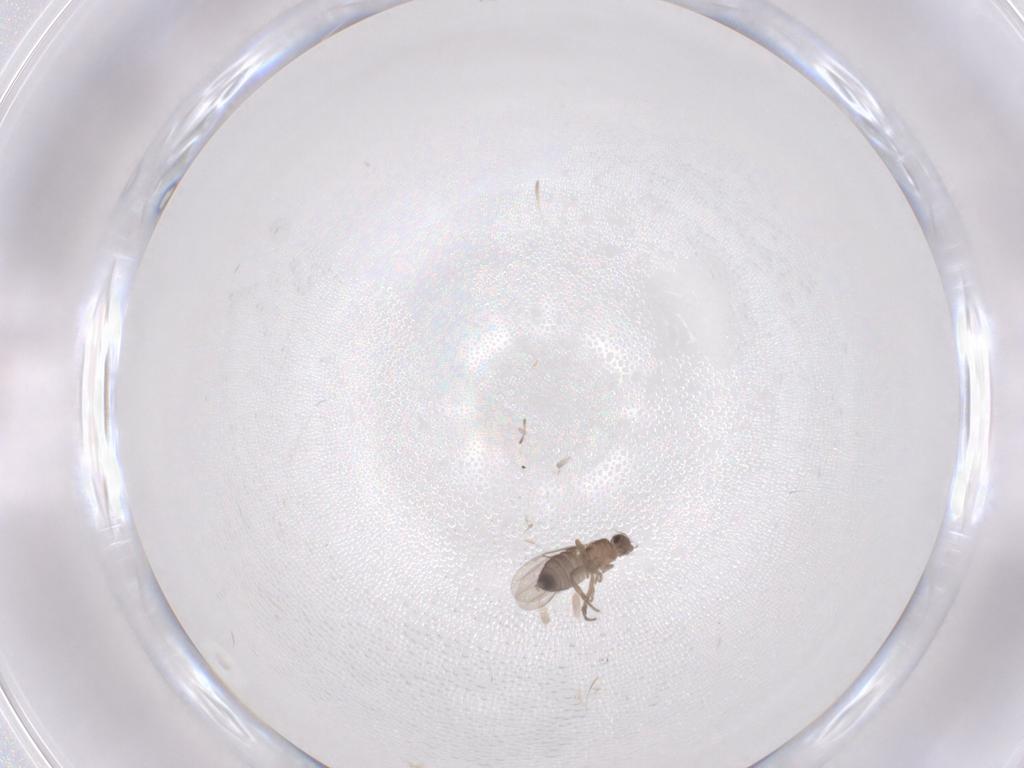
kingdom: Animalia
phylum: Arthropoda
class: Insecta
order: Diptera
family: Phoridae
